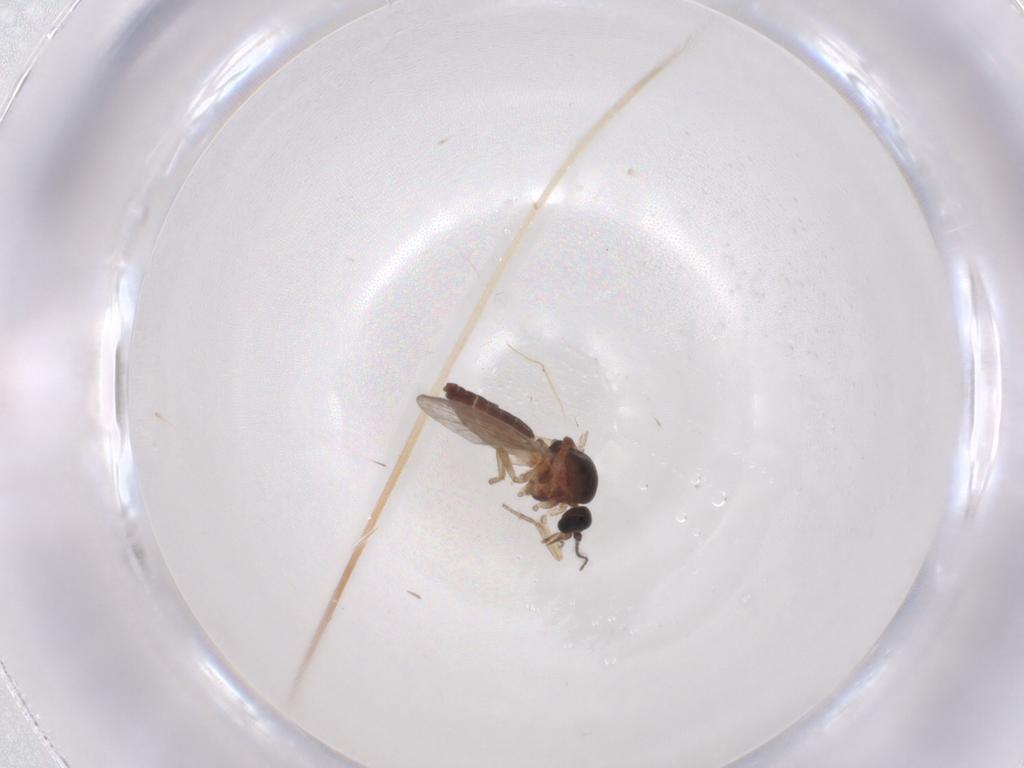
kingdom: Animalia
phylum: Arthropoda
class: Insecta
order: Diptera
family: Ceratopogonidae
